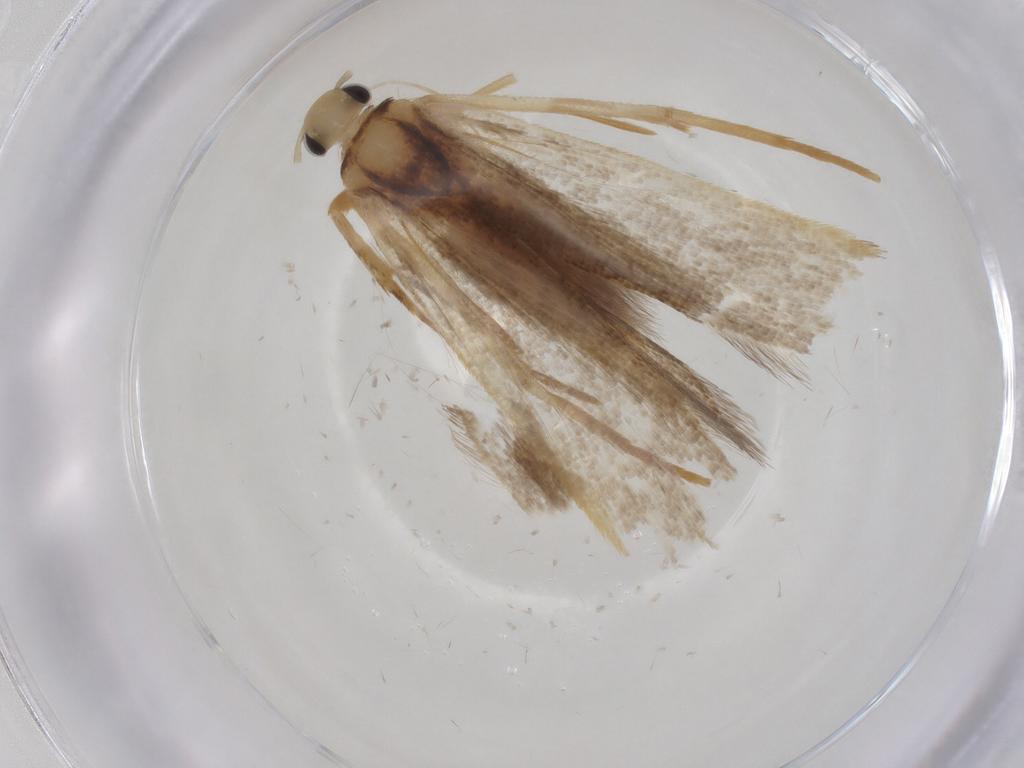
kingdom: Animalia
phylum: Arthropoda
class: Insecta
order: Lepidoptera
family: Gelechiidae
